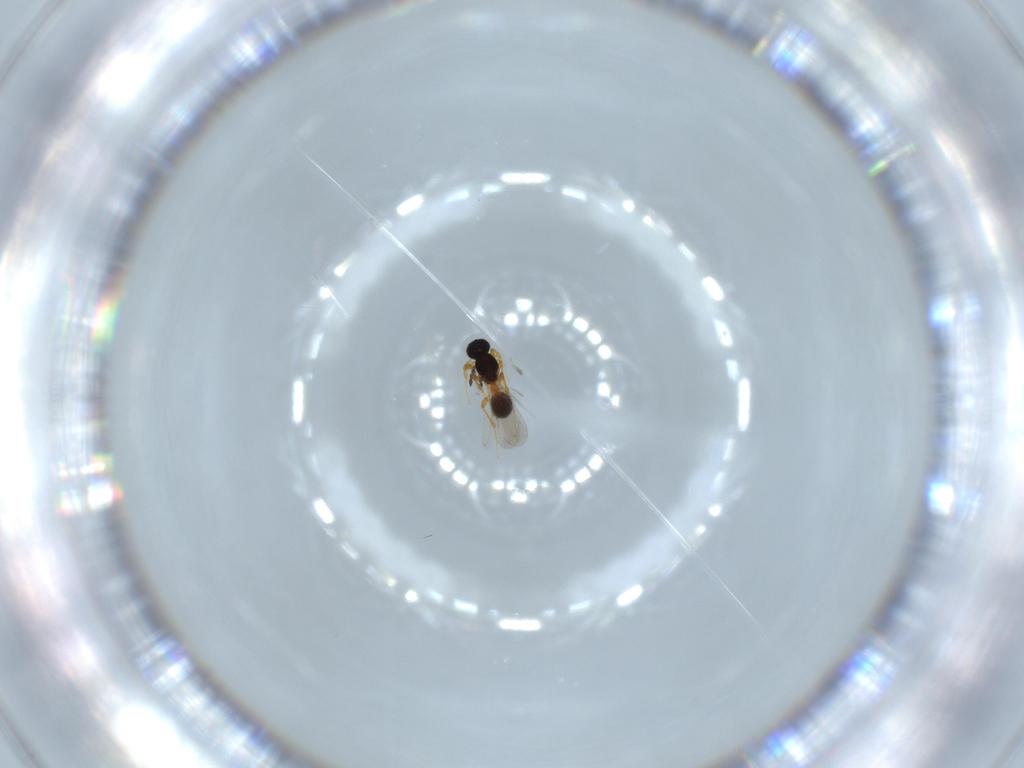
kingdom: Animalia
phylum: Arthropoda
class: Insecta
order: Hymenoptera
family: Platygastridae
